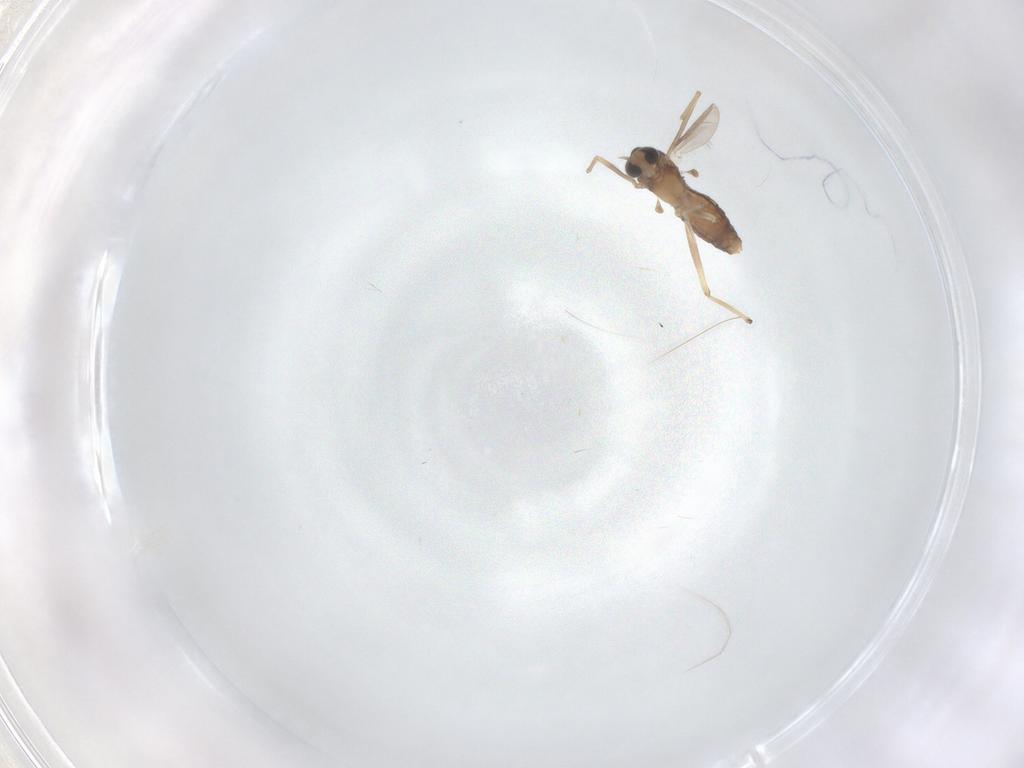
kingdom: Animalia
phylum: Arthropoda
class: Insecta
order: Diptera
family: Chironomidae
